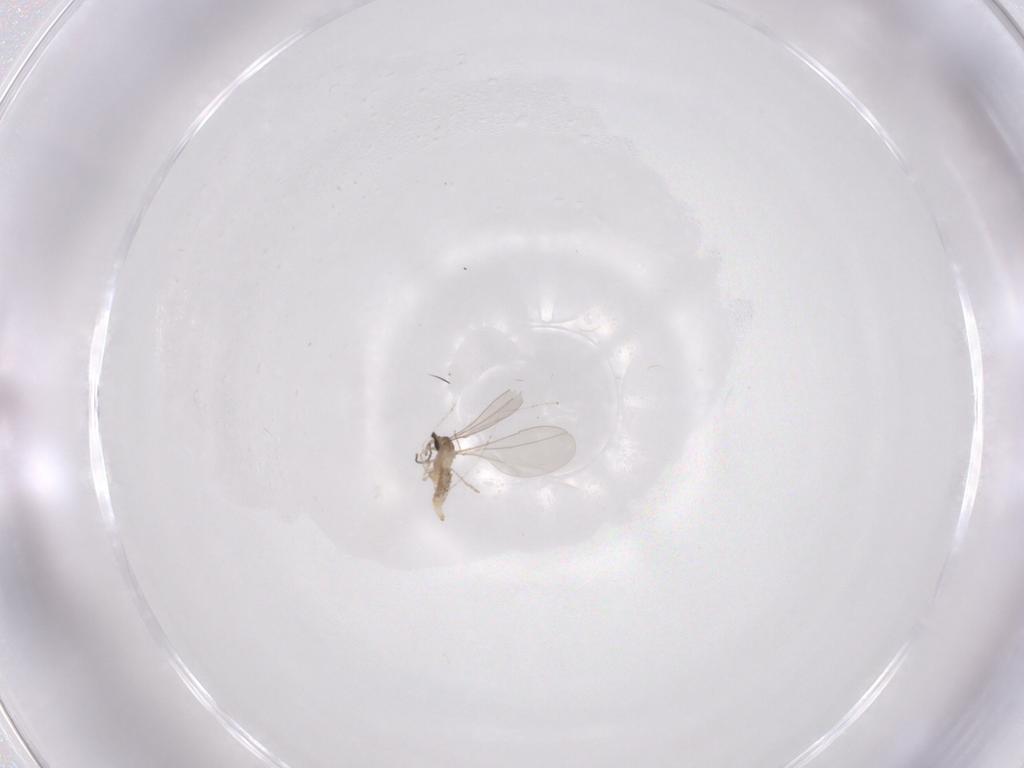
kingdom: Animalia
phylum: Arthropoda
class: Insecta
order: Diptera
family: Cecidomyiidae
